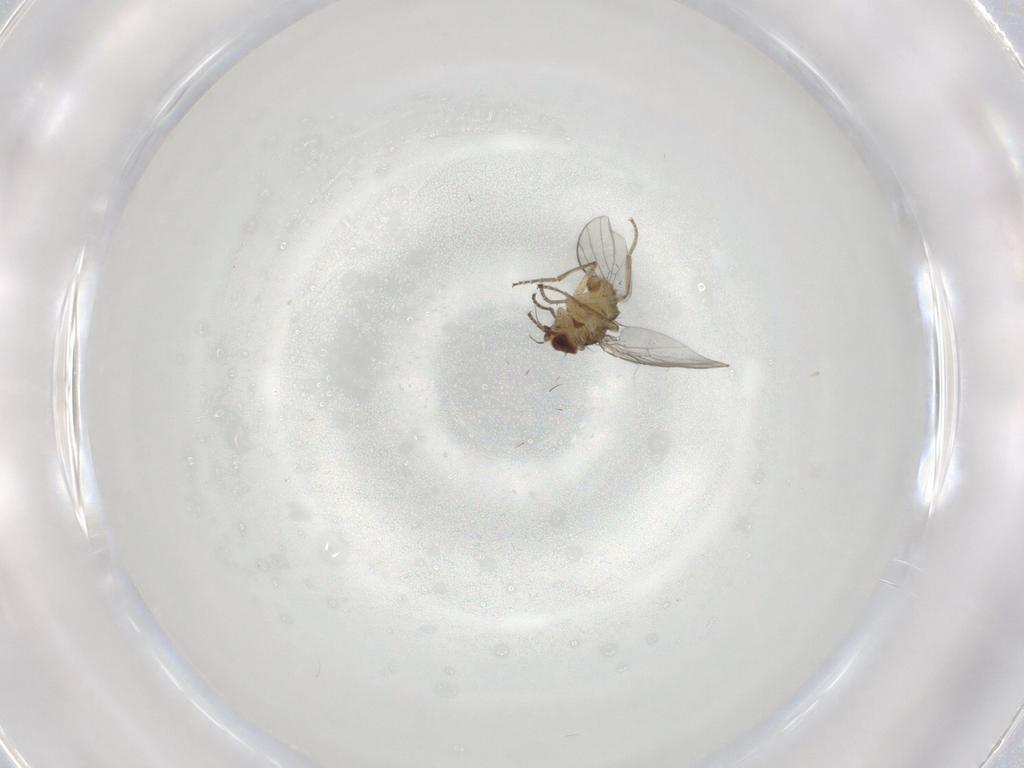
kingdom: Animalia
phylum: Arthropoda
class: Insecta
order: Diptera
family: Agromyzidae
